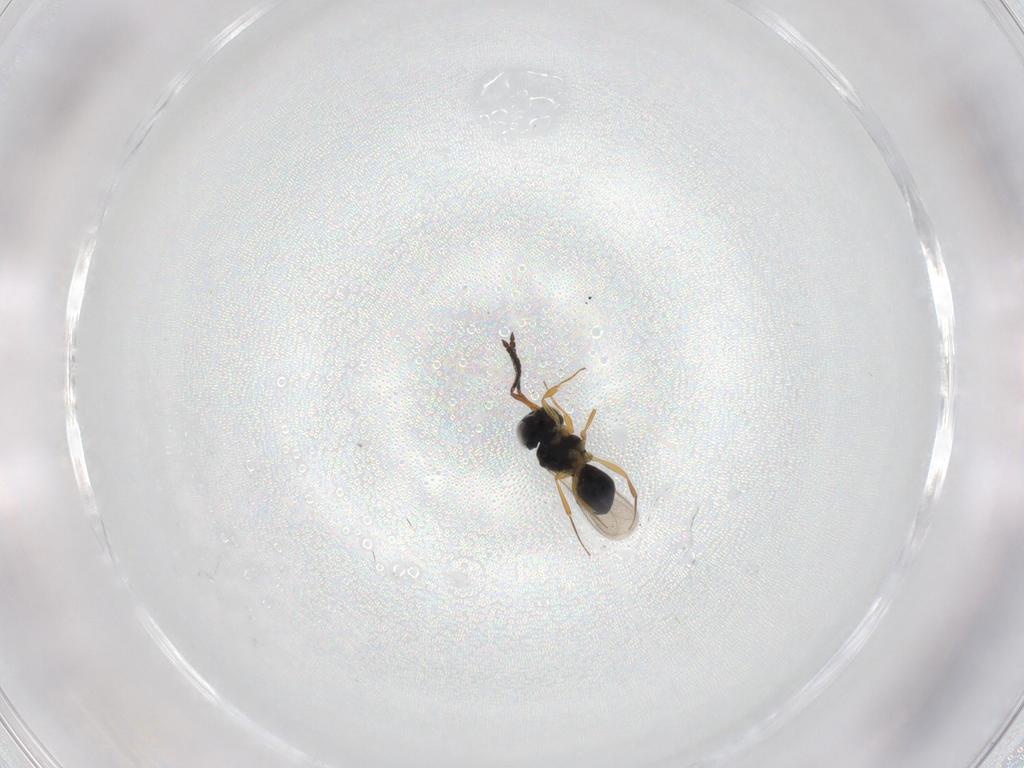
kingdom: Animalia
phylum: Arthropoda
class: Insecta
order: Hymenoptera
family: Scelionidae
